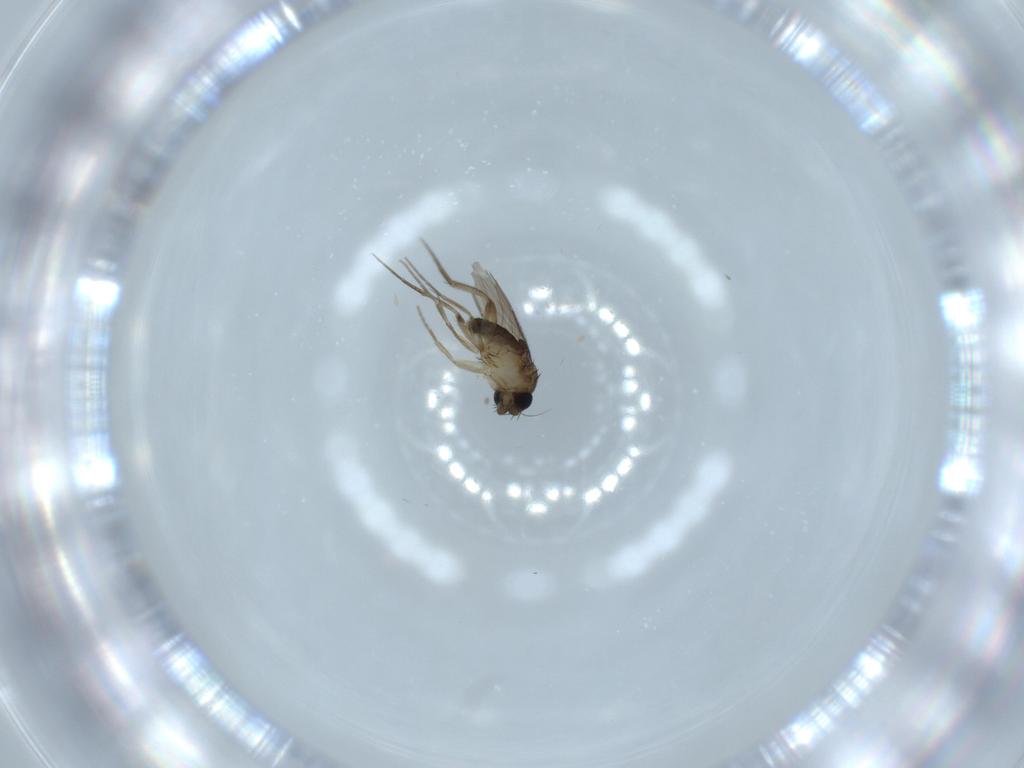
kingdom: Animalia
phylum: Arthropoda
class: Insecta
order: Diptera
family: Phoridae
